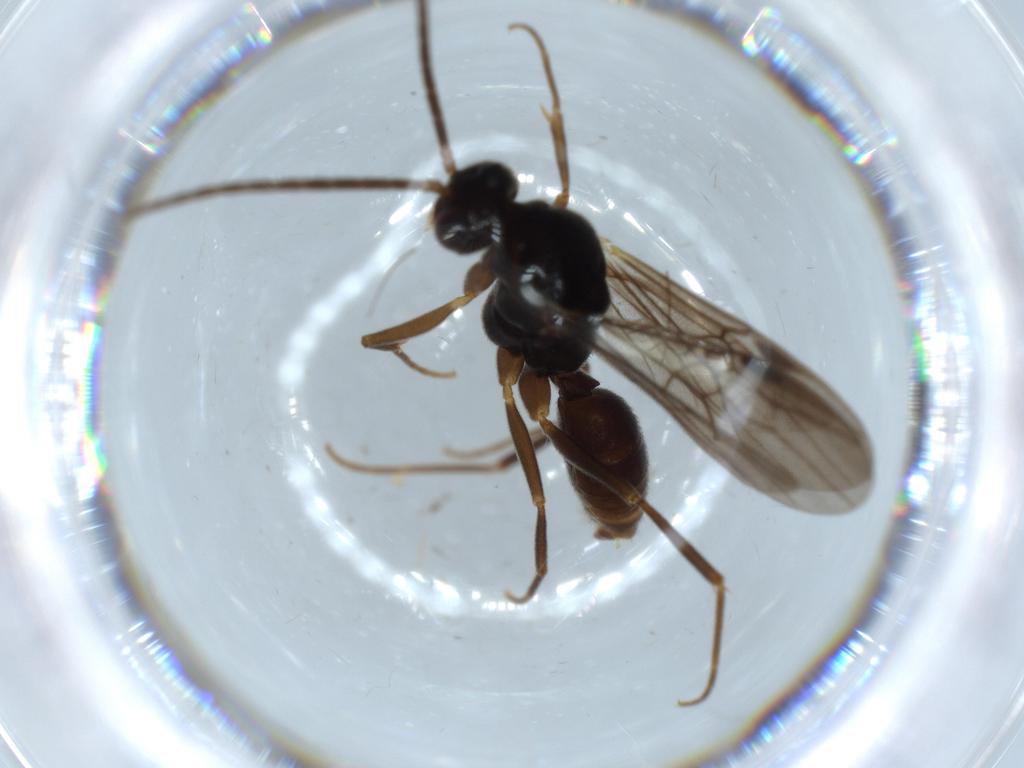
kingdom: Animalia
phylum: Arthropoda
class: Insecta
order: Hymenoptera
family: Formicidae
